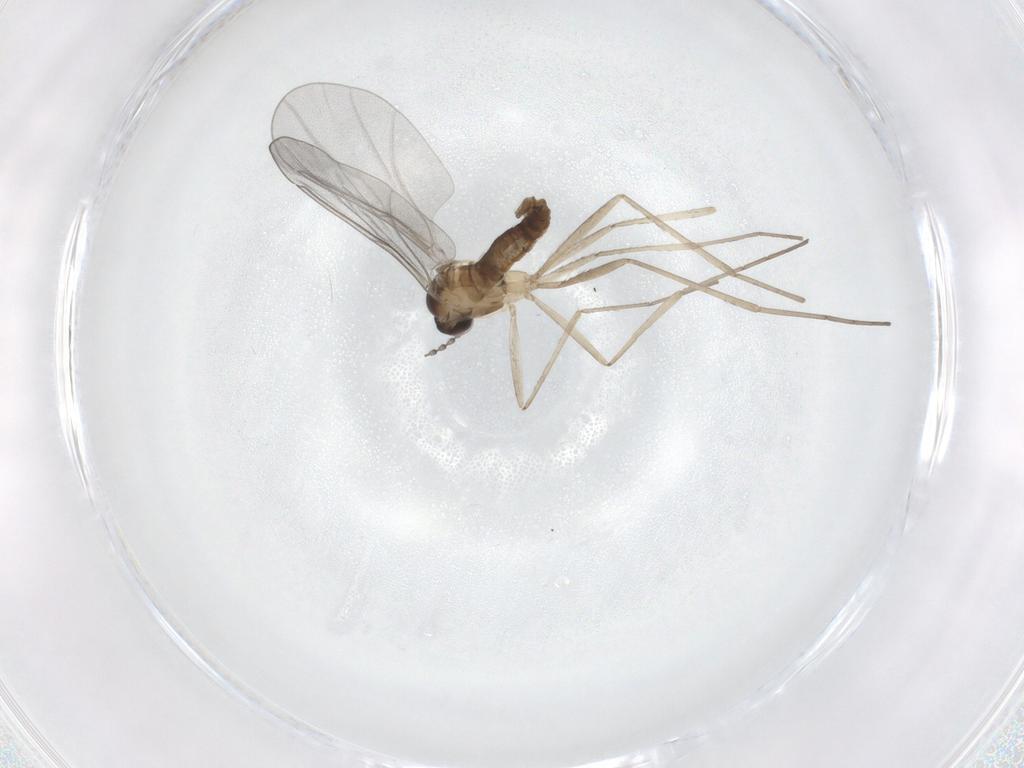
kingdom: Animalia
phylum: Arthropoda
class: Insecta
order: Diptera
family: Cecidomyiidae
